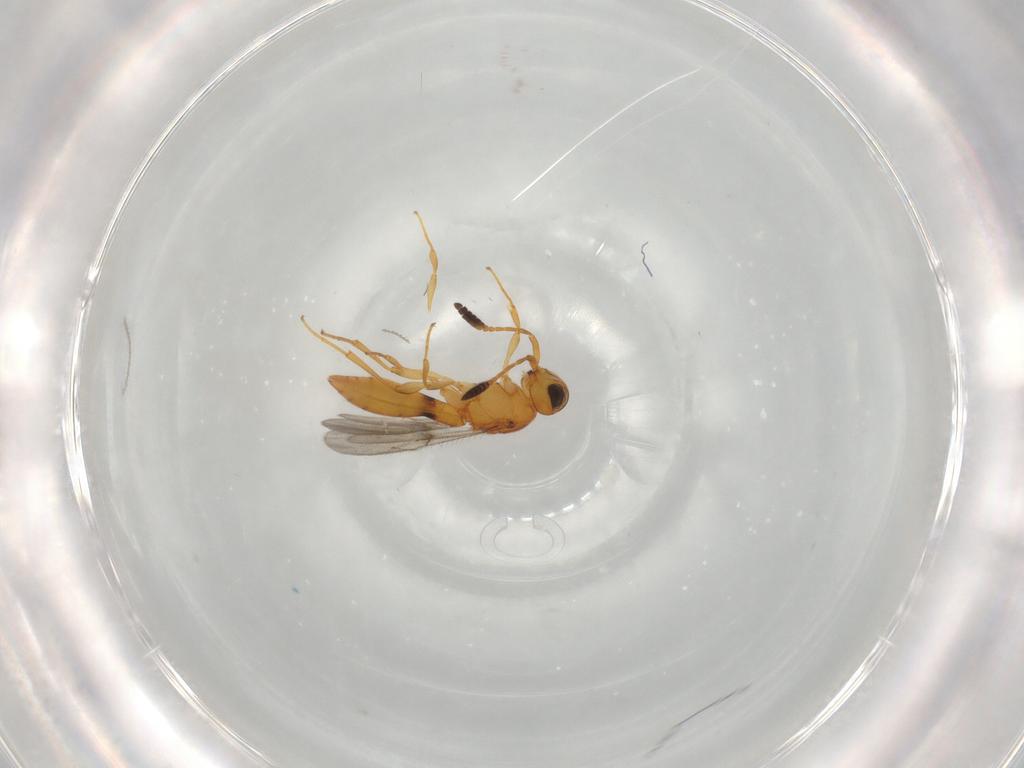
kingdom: Animalia
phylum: Arthropoda
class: Insecta
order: Hymenoptera
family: Scelionidae
